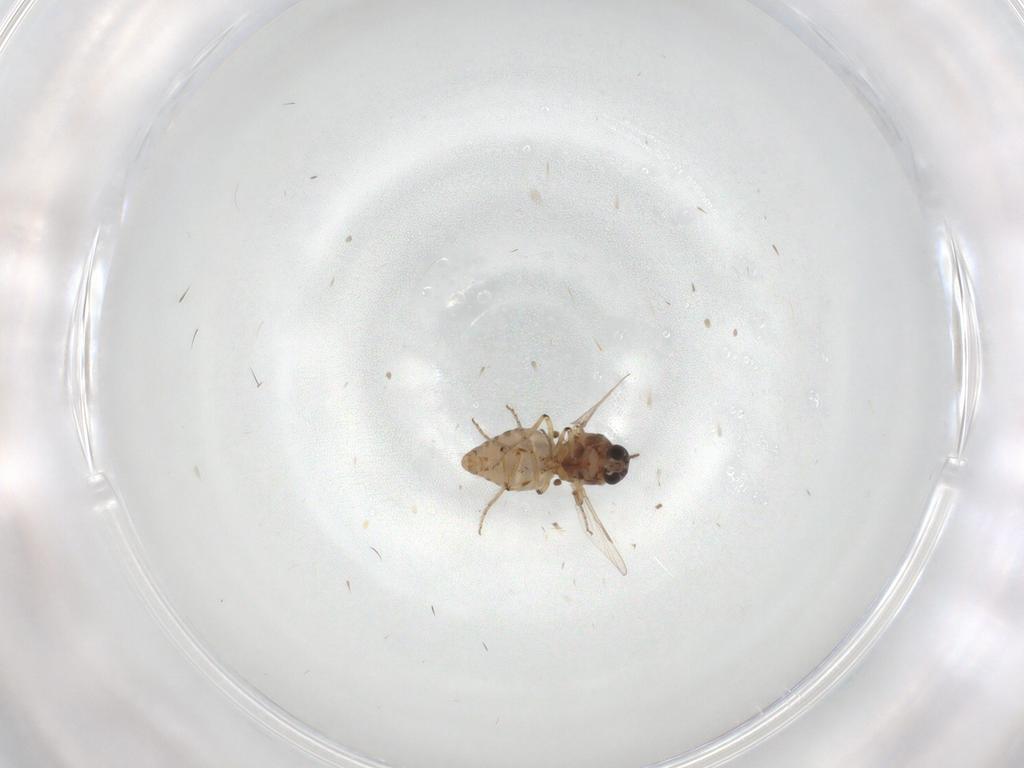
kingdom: Animalia
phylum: Arthropoda
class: Insecta
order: Diptera
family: Ceratopogonidae
